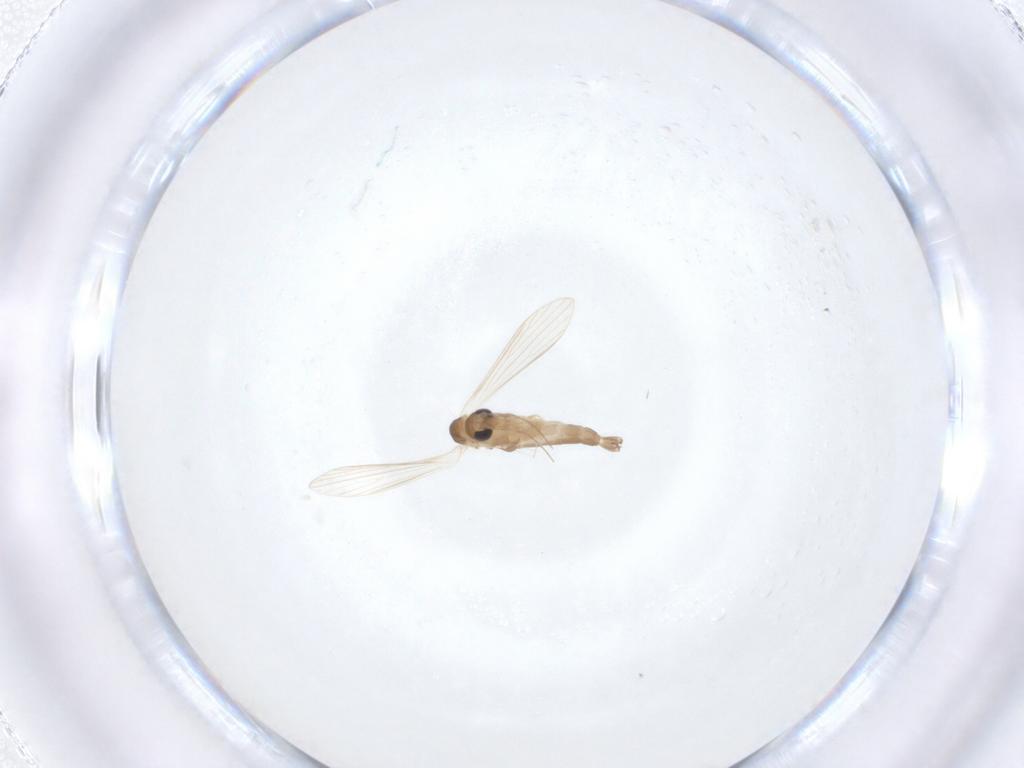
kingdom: Animalia
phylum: Arthropoda
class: Insecta
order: Diptera
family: Psychodidae
